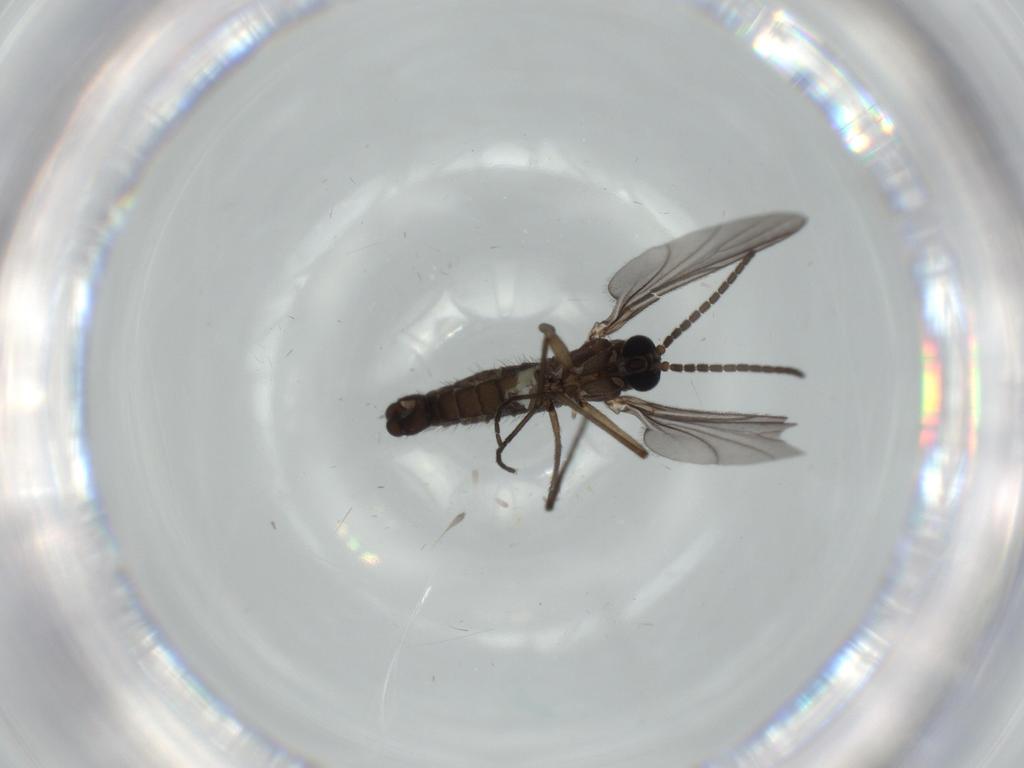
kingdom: Animalia
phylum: Arthropoda
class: Insecta
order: Diptera
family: Sciaridae
